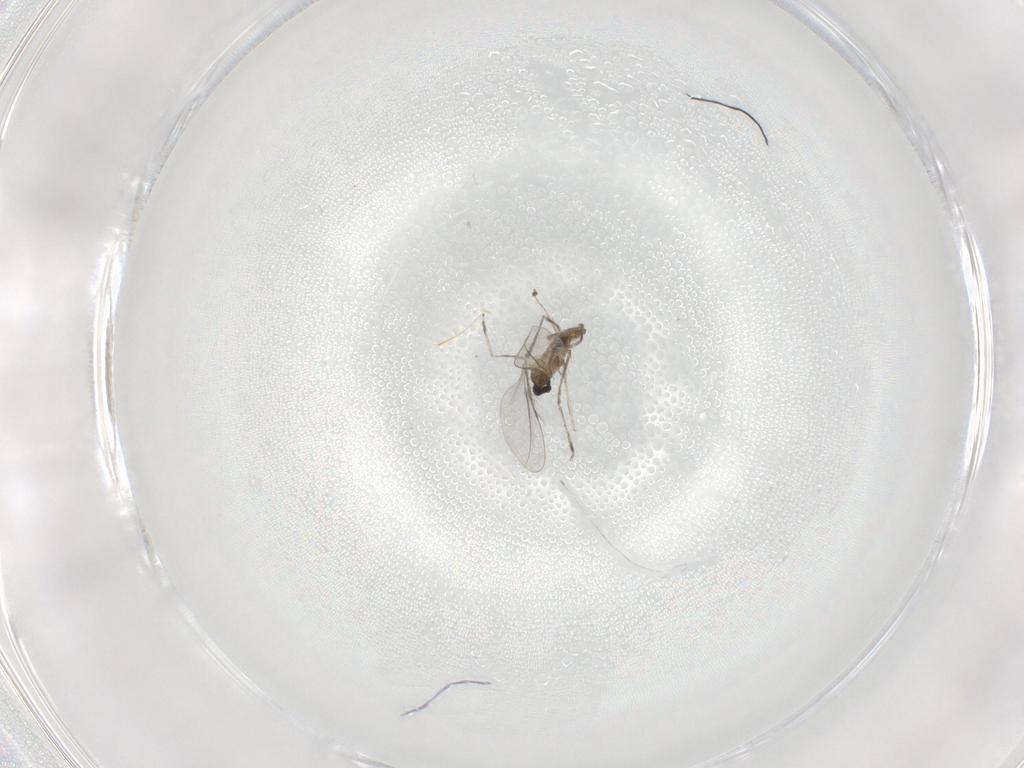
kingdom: Animalia
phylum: Arthropoda
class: Insecta
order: Diptera
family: Cecidomyiidae
